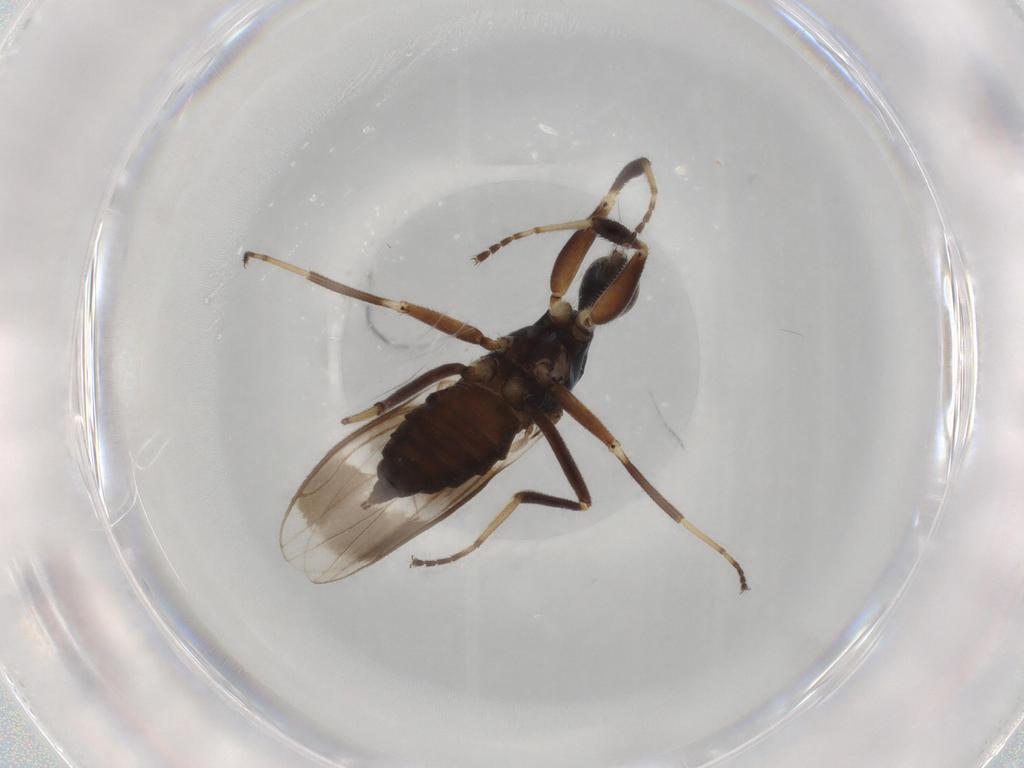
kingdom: Animalia
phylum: Arthropoda
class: Insecta
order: Diptera
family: Hybotidae
